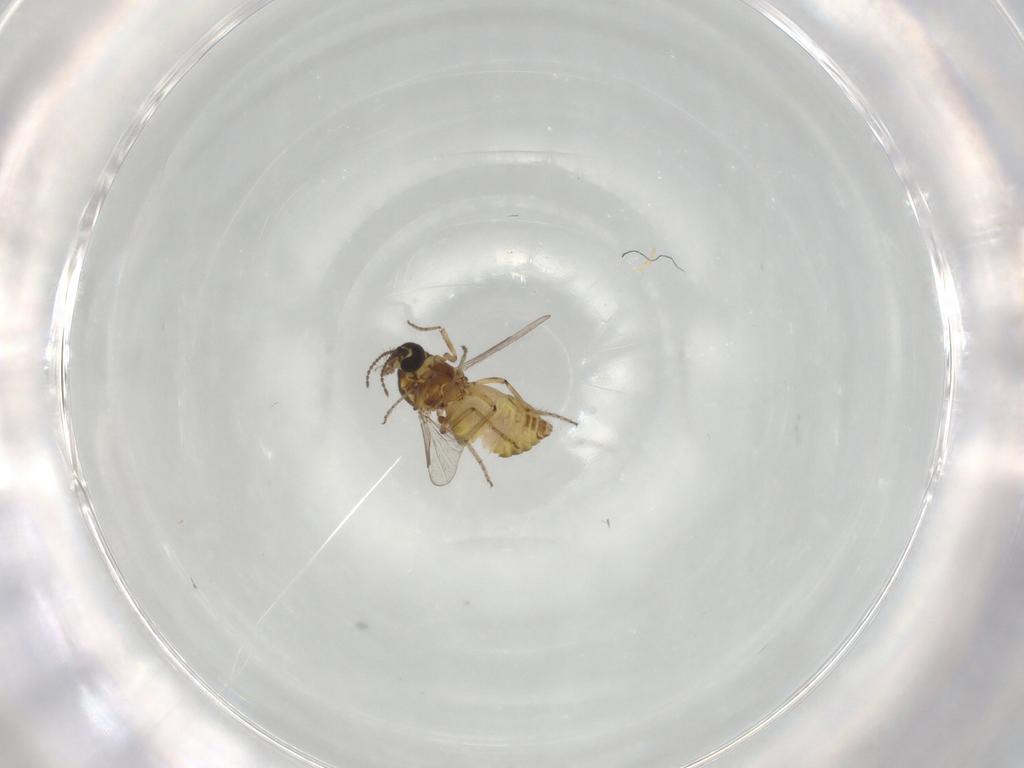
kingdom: Animalia
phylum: Arthropoda
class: Insecta
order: Diptera
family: Ceratopogonidae
